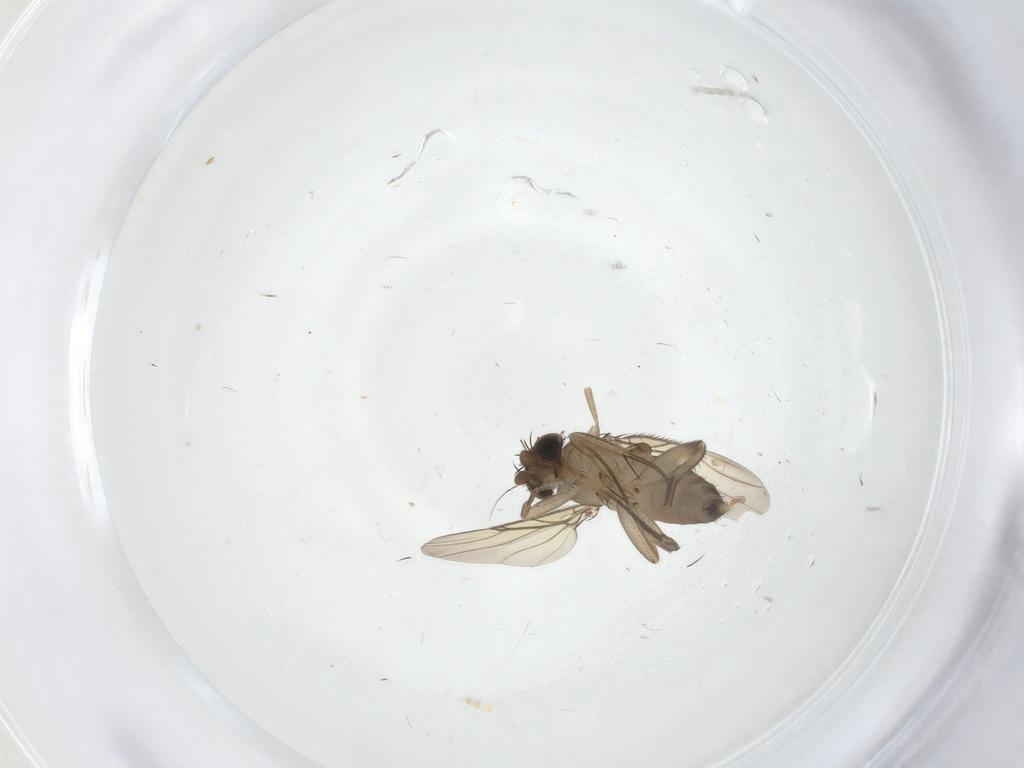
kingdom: Animalia
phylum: Arthropoda
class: Insecta
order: Diptera
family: Phoridae
